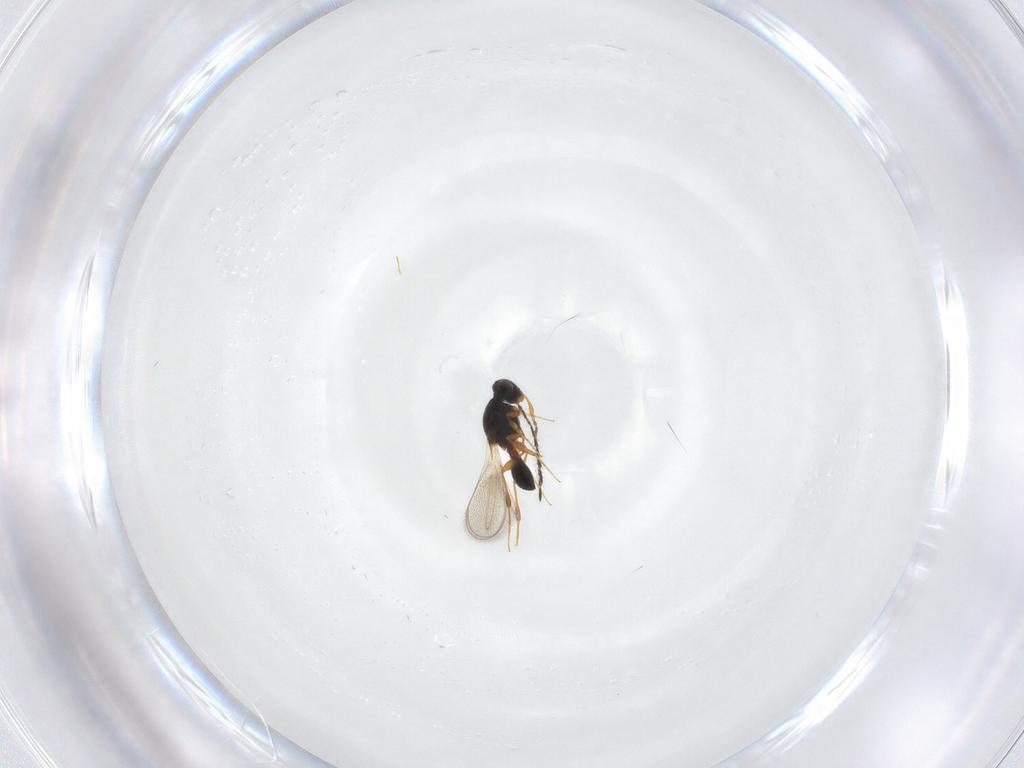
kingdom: Animalia
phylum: Arthropoda
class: Insecta
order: Hymenoptera
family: Platygastridae
